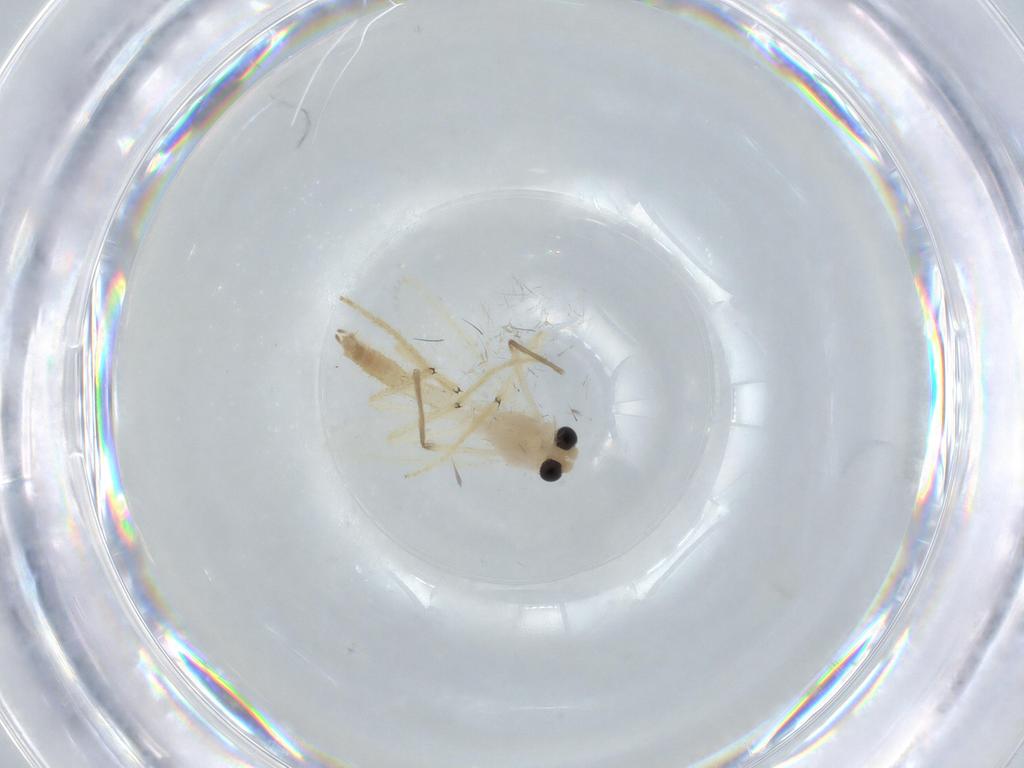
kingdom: Animalia
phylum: Arthropoda
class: Insecta
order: Diptera
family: Chironomidae
